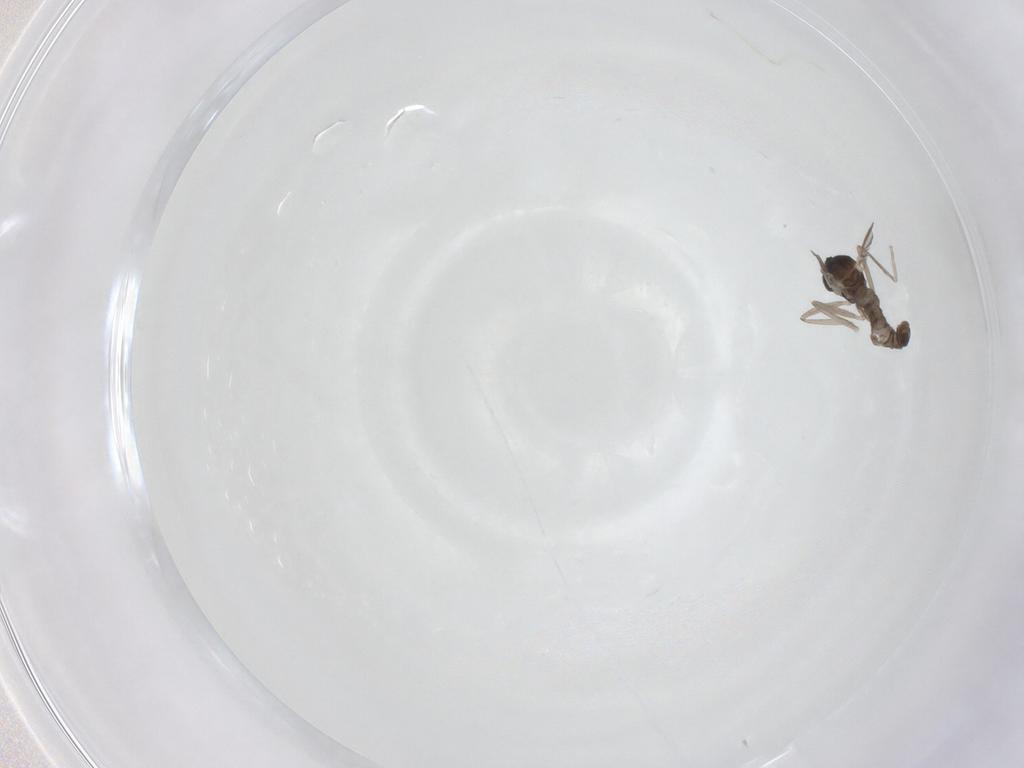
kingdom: Animalia
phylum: Arthropoda
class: Insecta
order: Diptera
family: Cecidomyiidae
